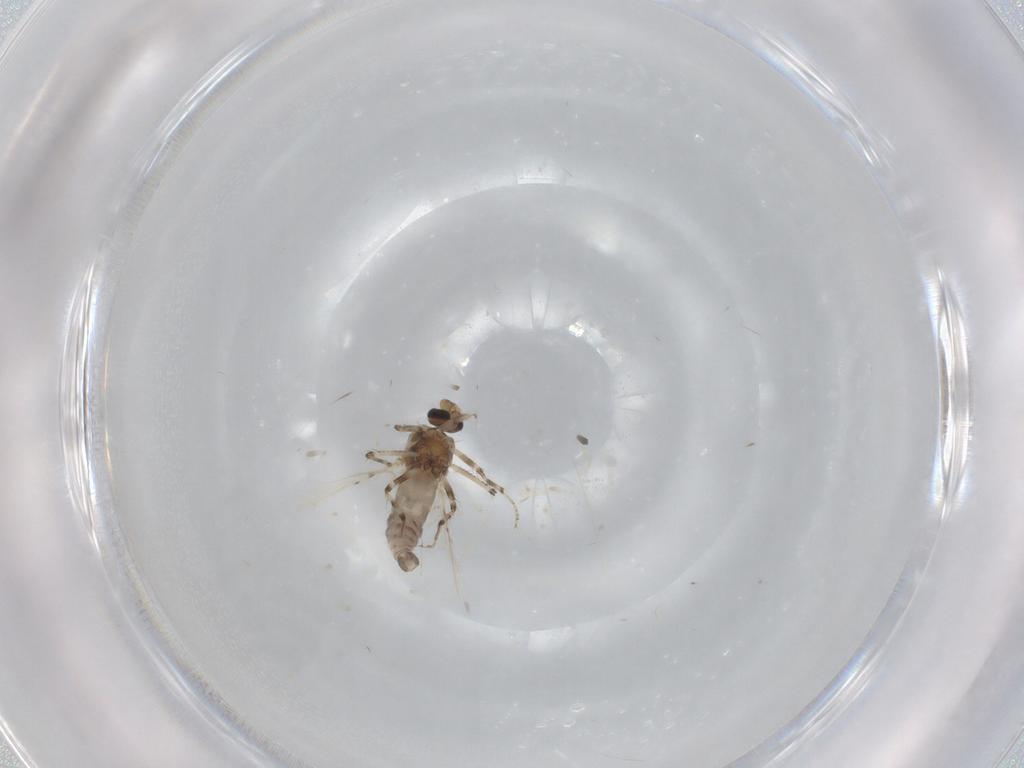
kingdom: Animalia
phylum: Arthropoda
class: Insecta
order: Diptera
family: Ceratopogonidae
